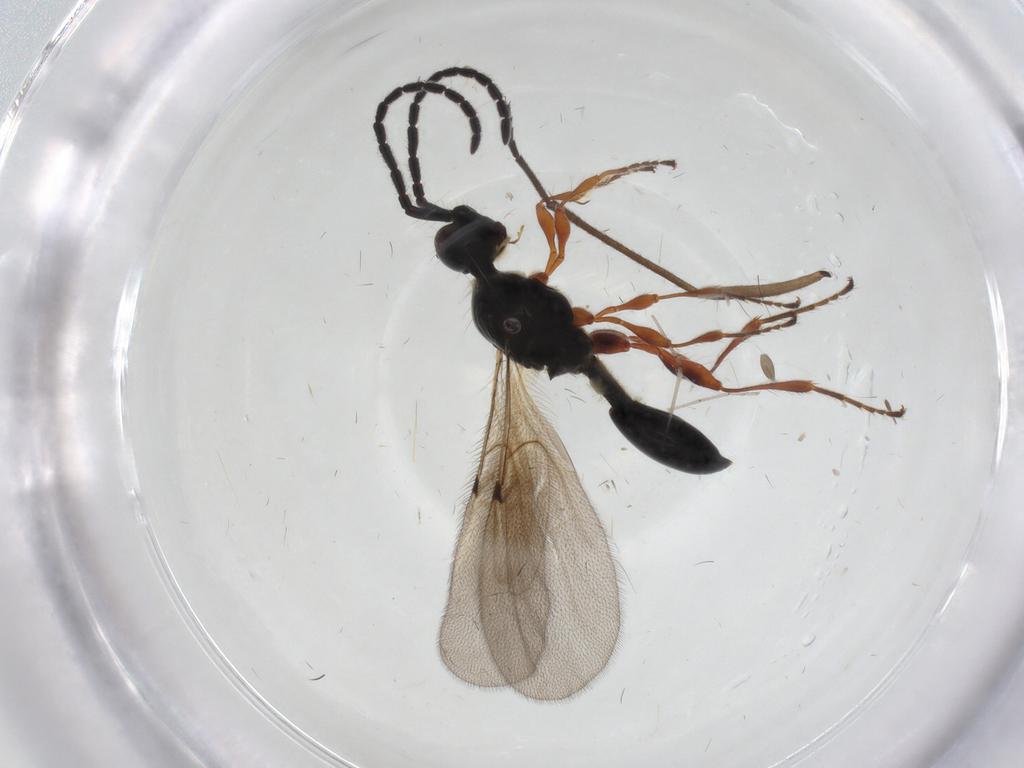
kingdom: Animalia
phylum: Arthropoda
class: Insecta
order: Hymenoptera
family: Diapriidae
